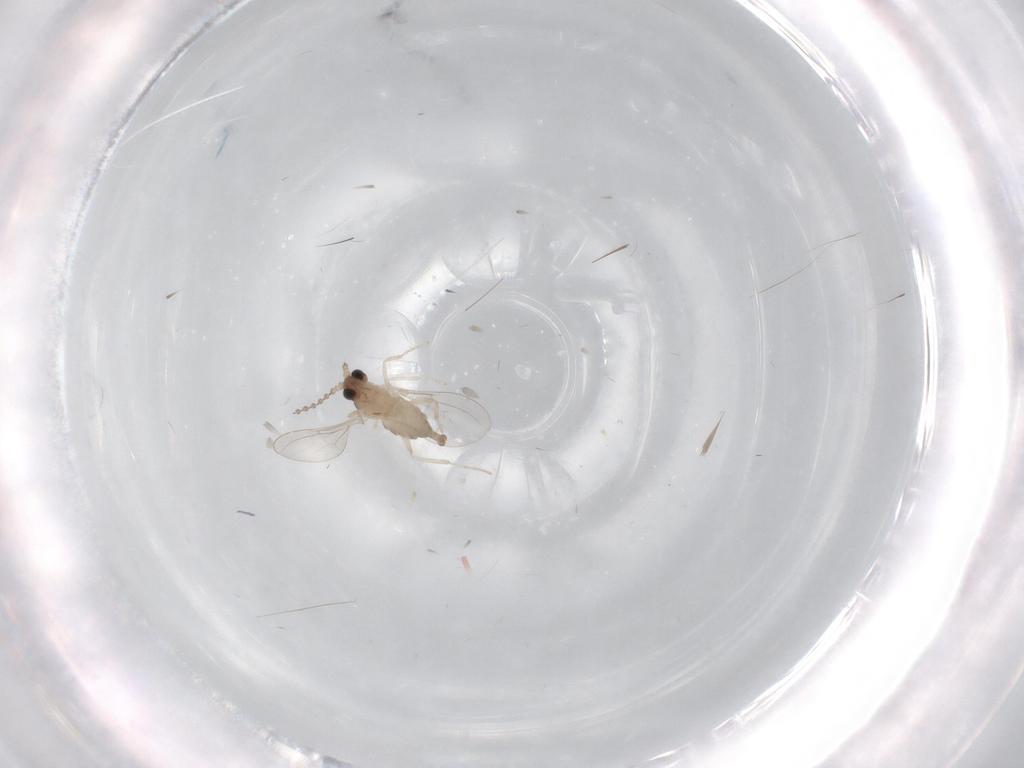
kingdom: Animalia
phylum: Arthropoda
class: Insecta
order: Diptera
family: Cecidomyiidae
